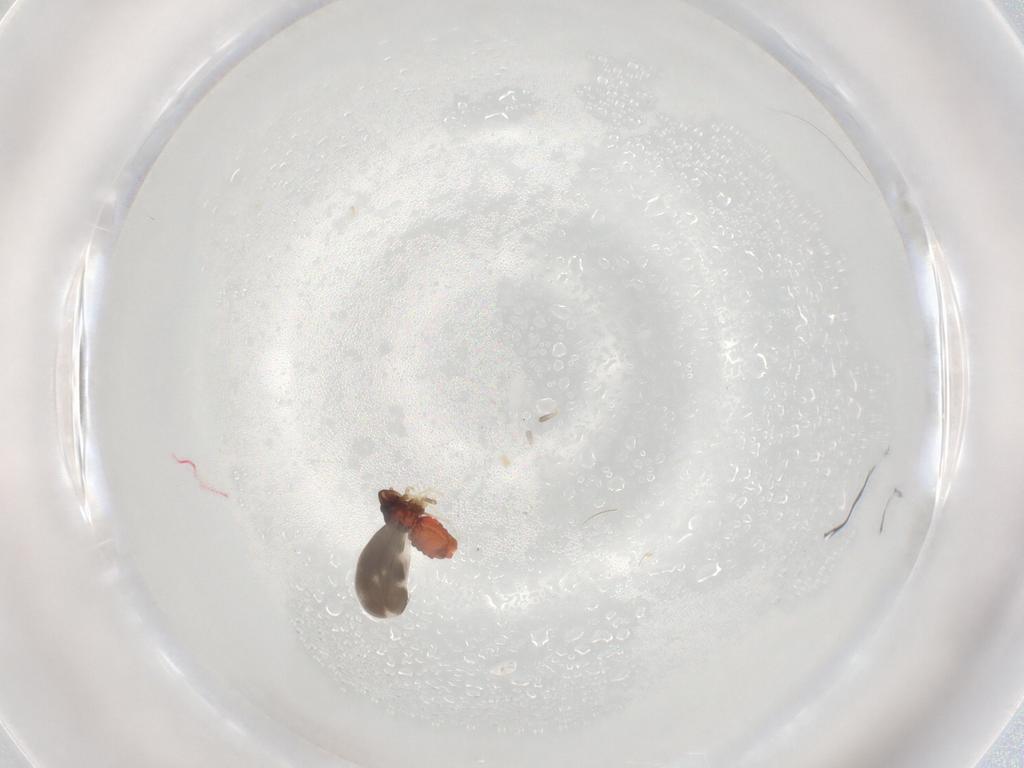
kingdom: Animalia
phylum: Arthropoda
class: Insecta
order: Hemiptera
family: Aleyrodidae
